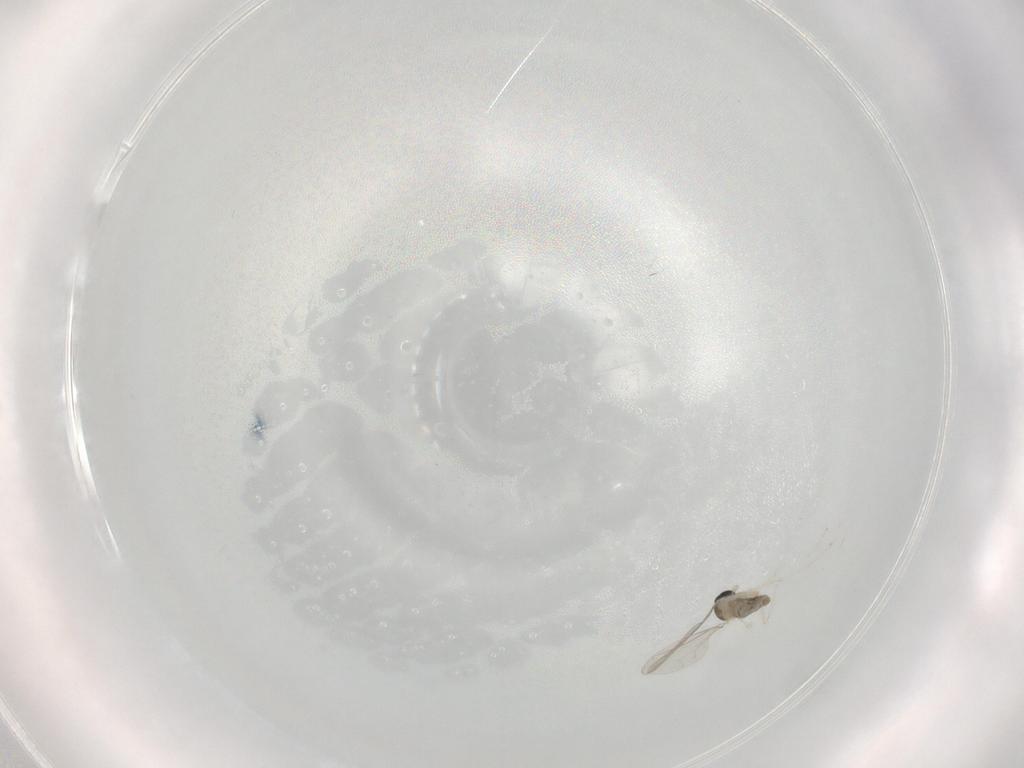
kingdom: Animalia
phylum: Arthropoda
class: Insecta
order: Diptera
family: Cecidomyiidae
